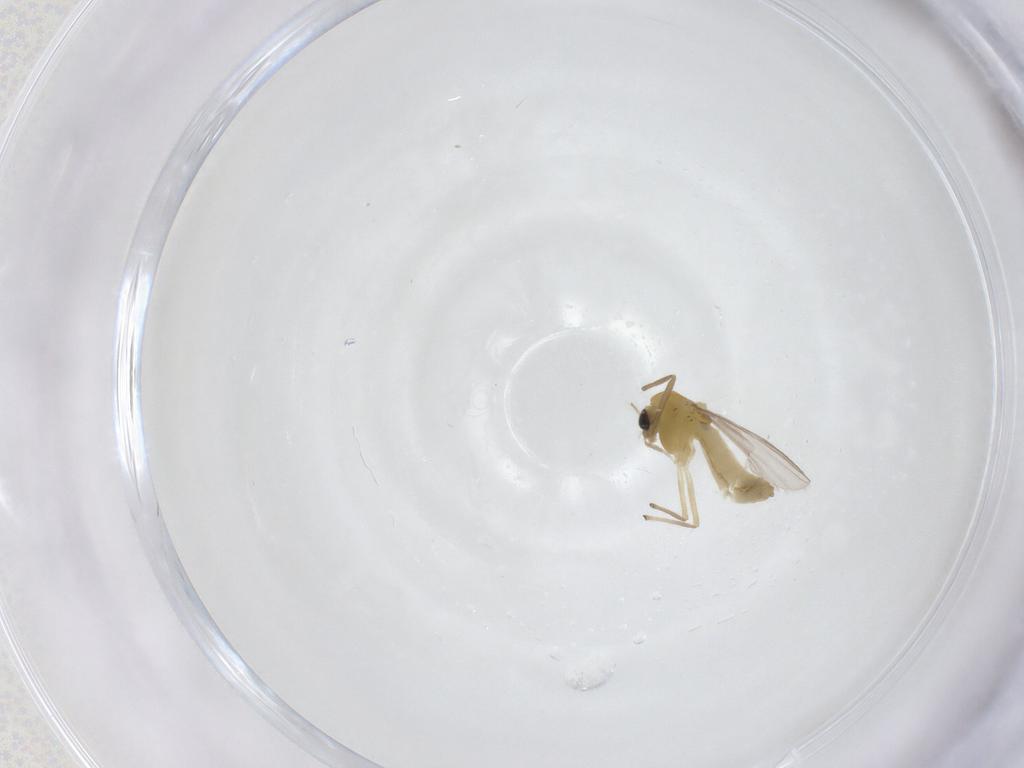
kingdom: Animalia
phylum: Arthropoda
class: Insecta
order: Diptera
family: Chironomidae
